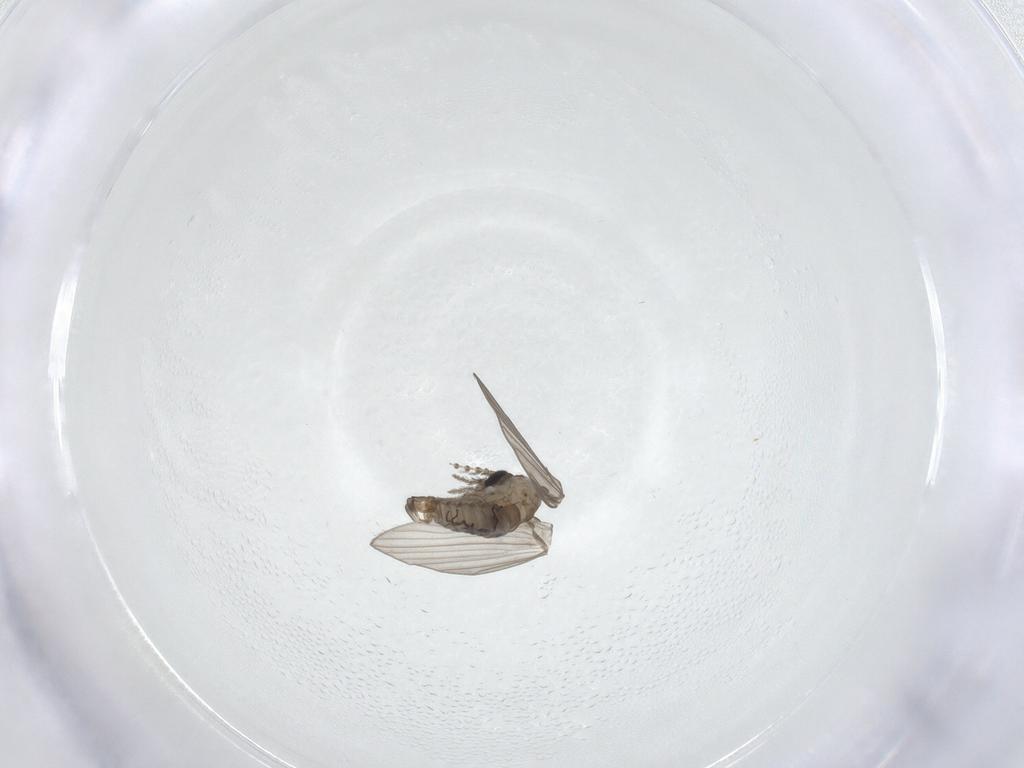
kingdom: Animalia
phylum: Arthropoda
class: Insecta
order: Diptera
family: Psychodidae
